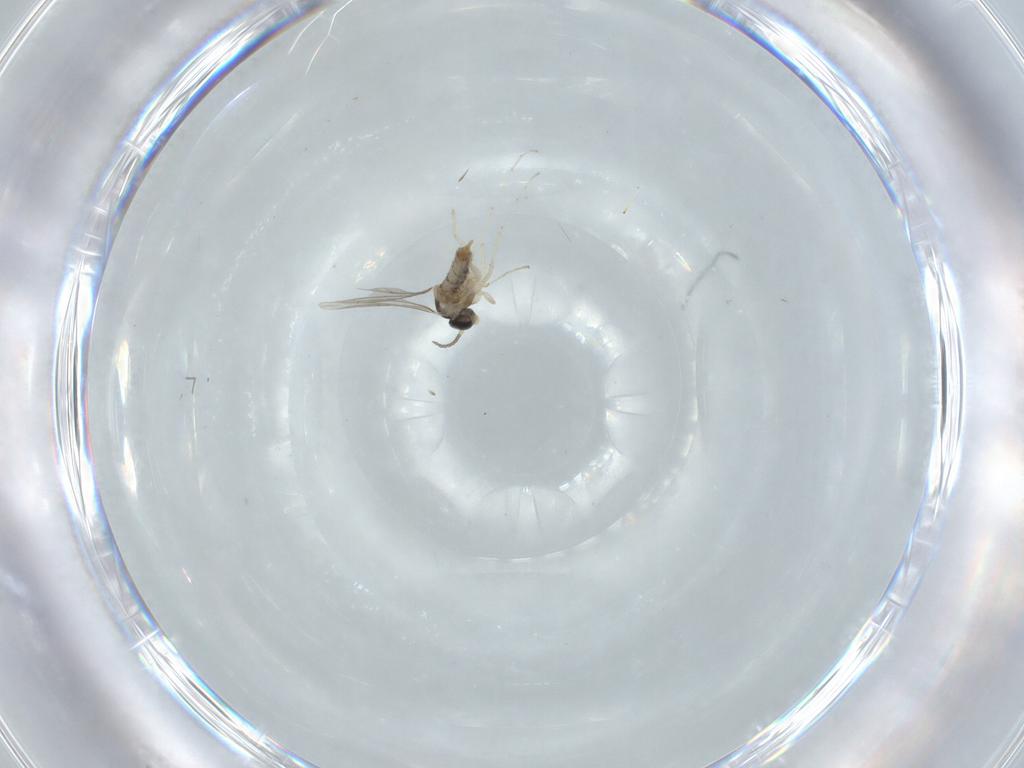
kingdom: Animalia
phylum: Arthropoda
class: Insecta
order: Diptera
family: Cecidomyiidae
